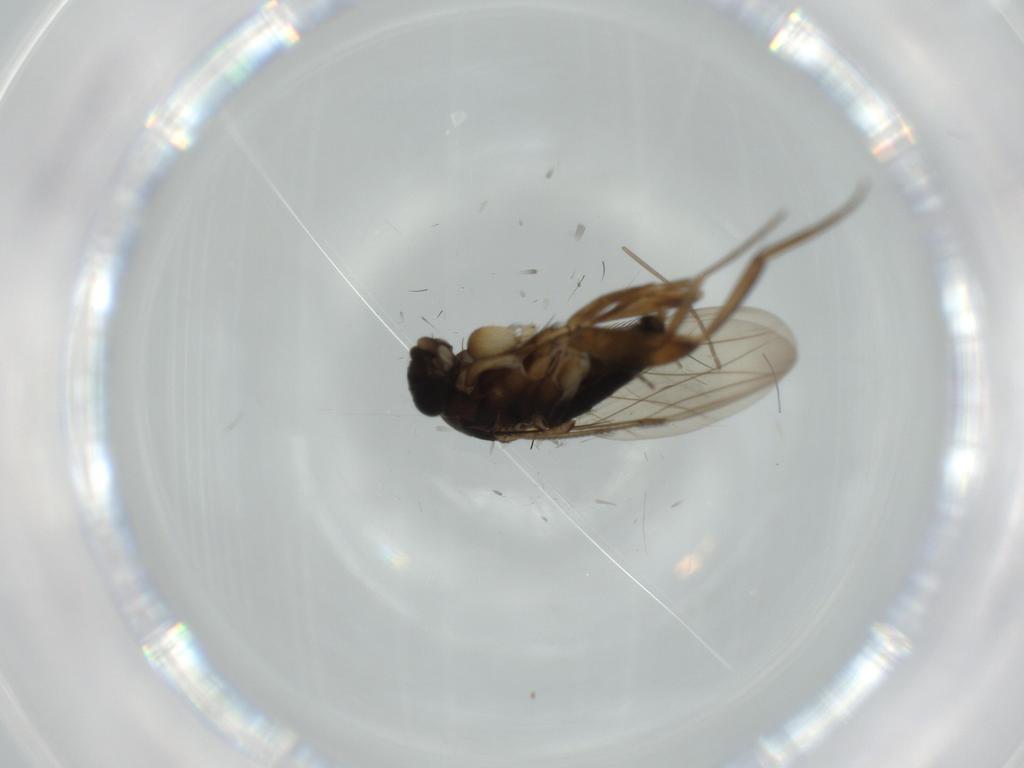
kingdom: Animalia
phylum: Arthropoda
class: Insecta
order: Diptera
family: Phoridae
